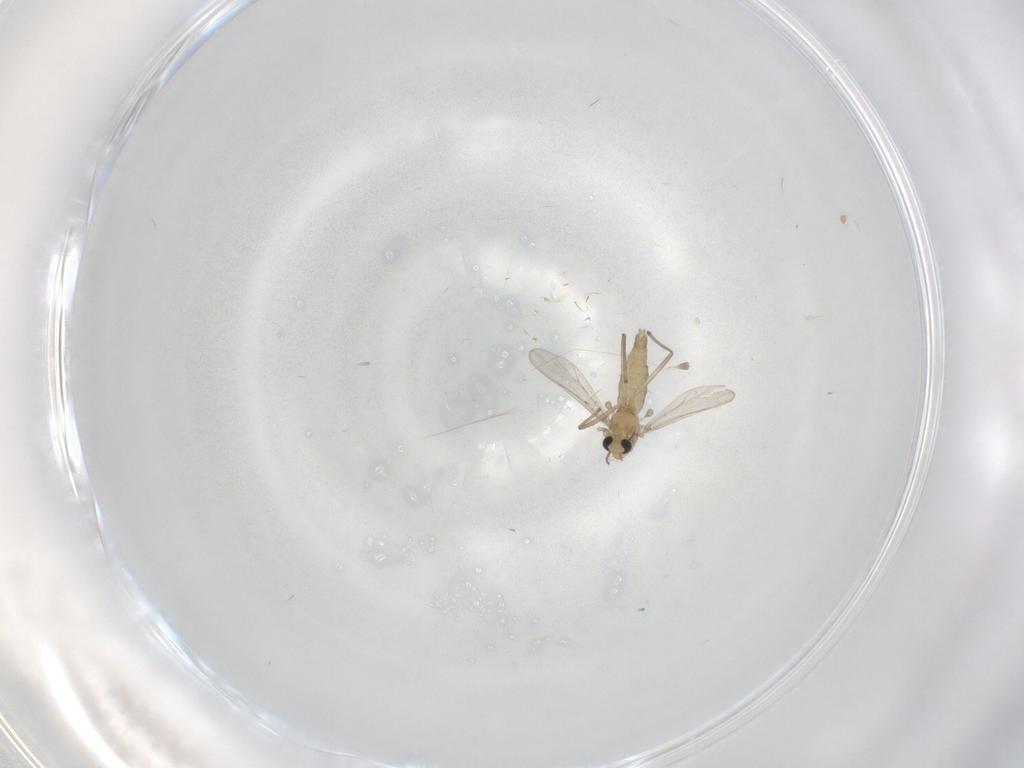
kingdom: Animalia
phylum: Arthropoda
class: Insecta
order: Diptera
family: Chironomidae
